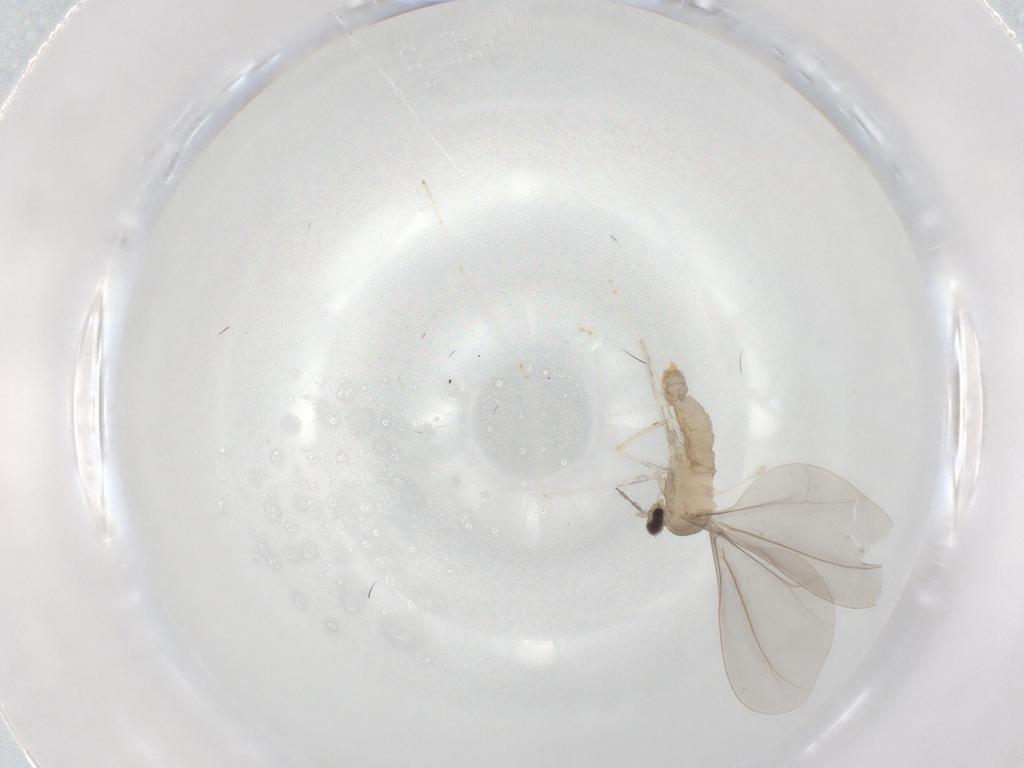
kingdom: Animalia
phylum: Arthropoda
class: Insecta
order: Diptera
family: Cecidomyiidae
